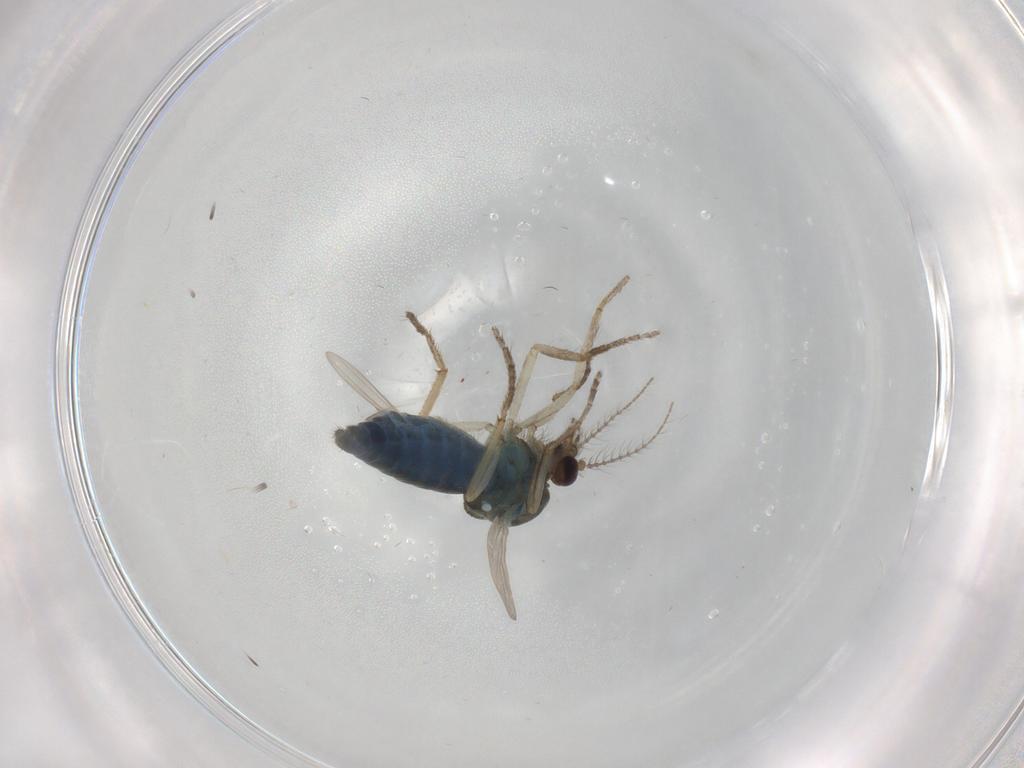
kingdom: Animalia
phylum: Arthropoda
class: Insecta
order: Diptera
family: Ceratopogonidae
